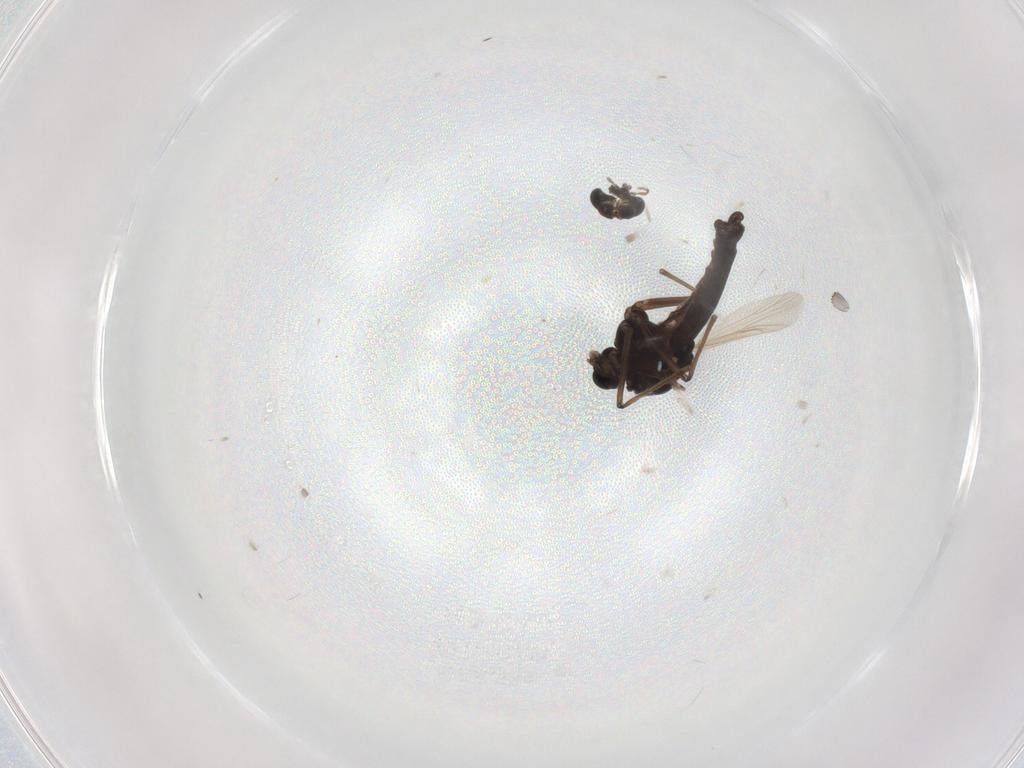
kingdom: Animalia
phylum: Arthropoda
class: Insecta
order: Diptera
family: Chironomidae
